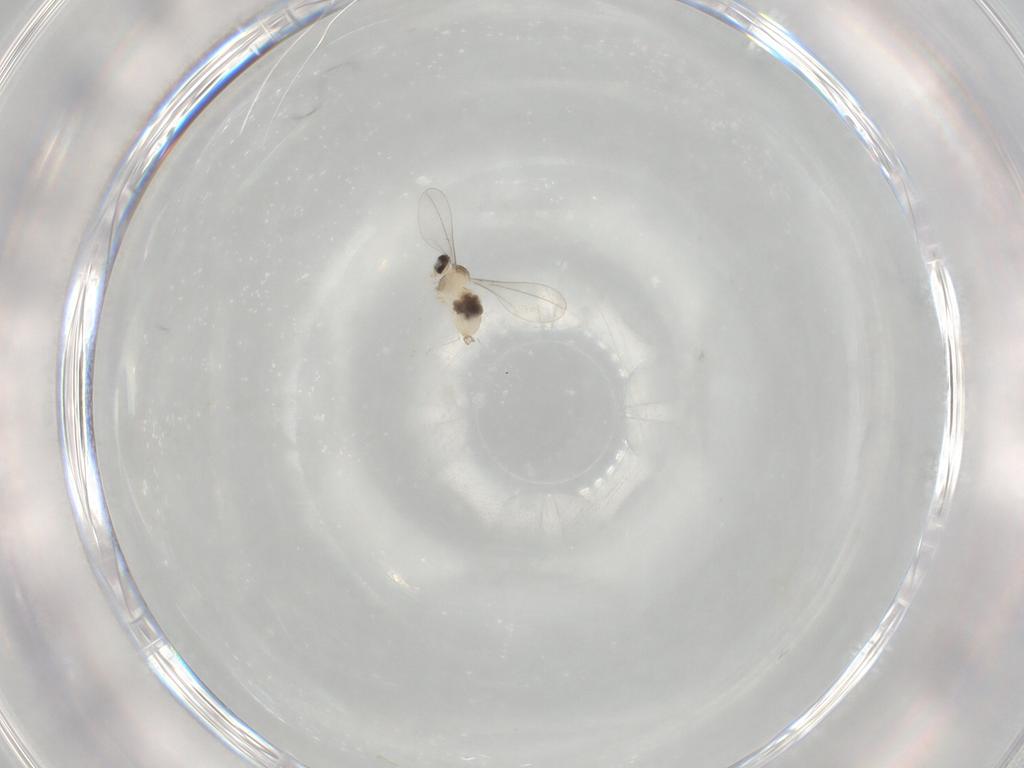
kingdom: Animalia
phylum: Arthropoda
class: Insecta
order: Diptera
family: Cecidomyiidae
